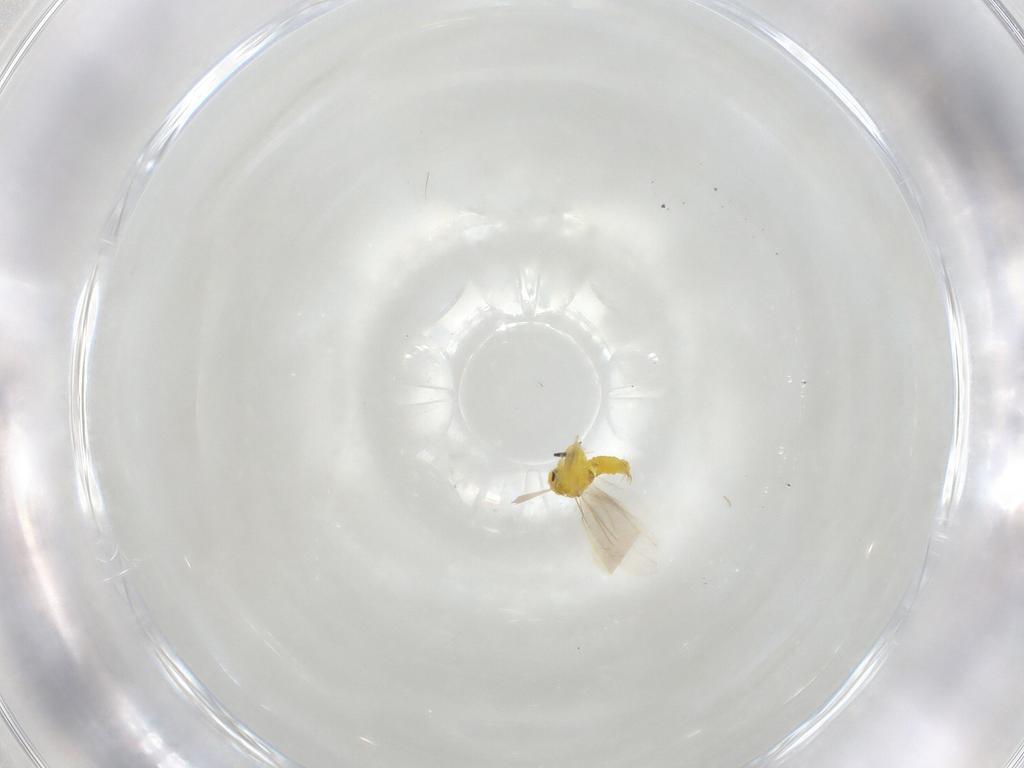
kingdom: Animalia
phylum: Arthropoda
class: Insecta
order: Hemiptera
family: Aleyrodidae
